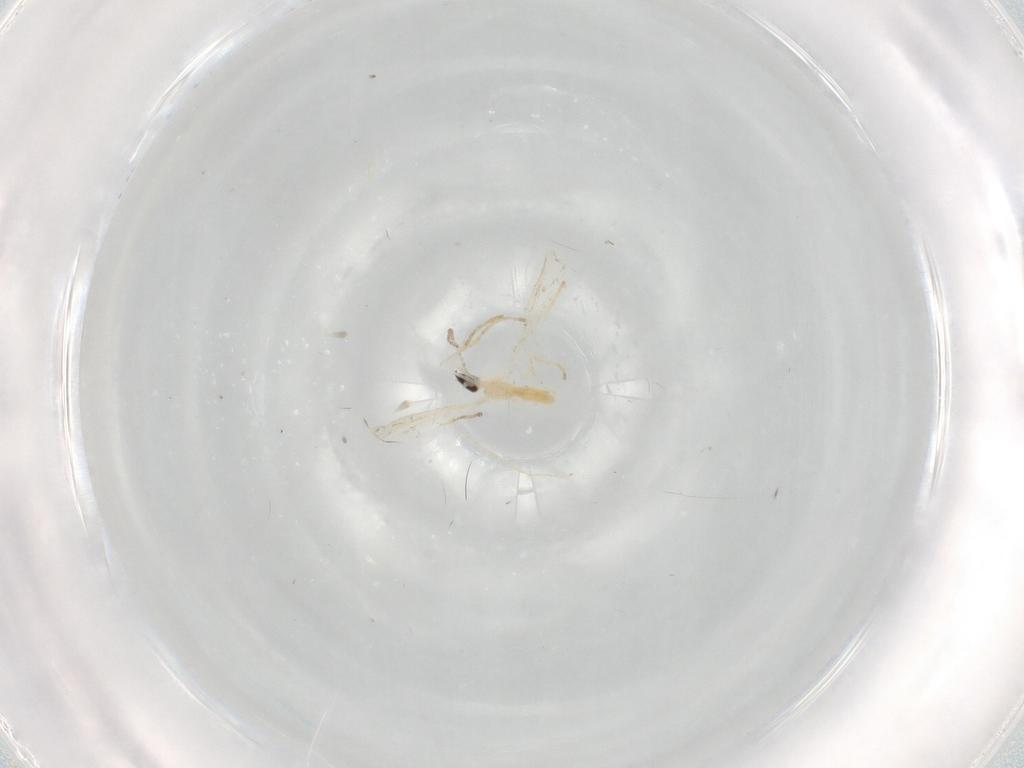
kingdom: Animalia
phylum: Arthropoda
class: Insecta
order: Diptera
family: Cecidomyiidae
